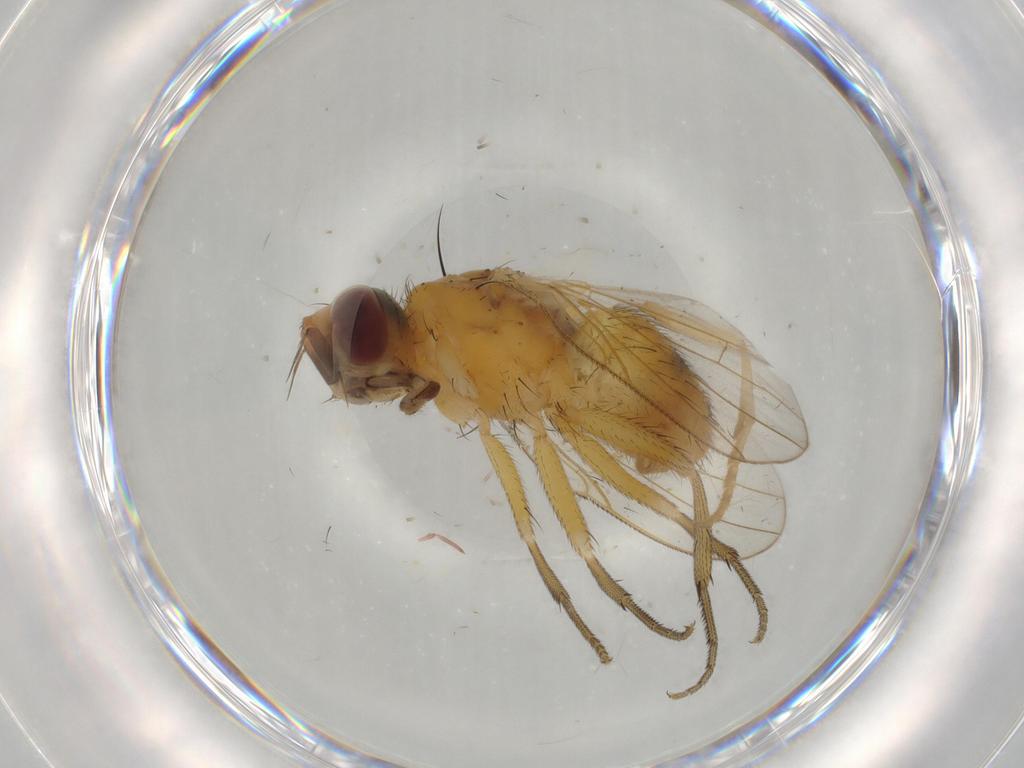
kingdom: Animalia
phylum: Arthropoda
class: Insecta
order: Diptera
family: Muscidae
